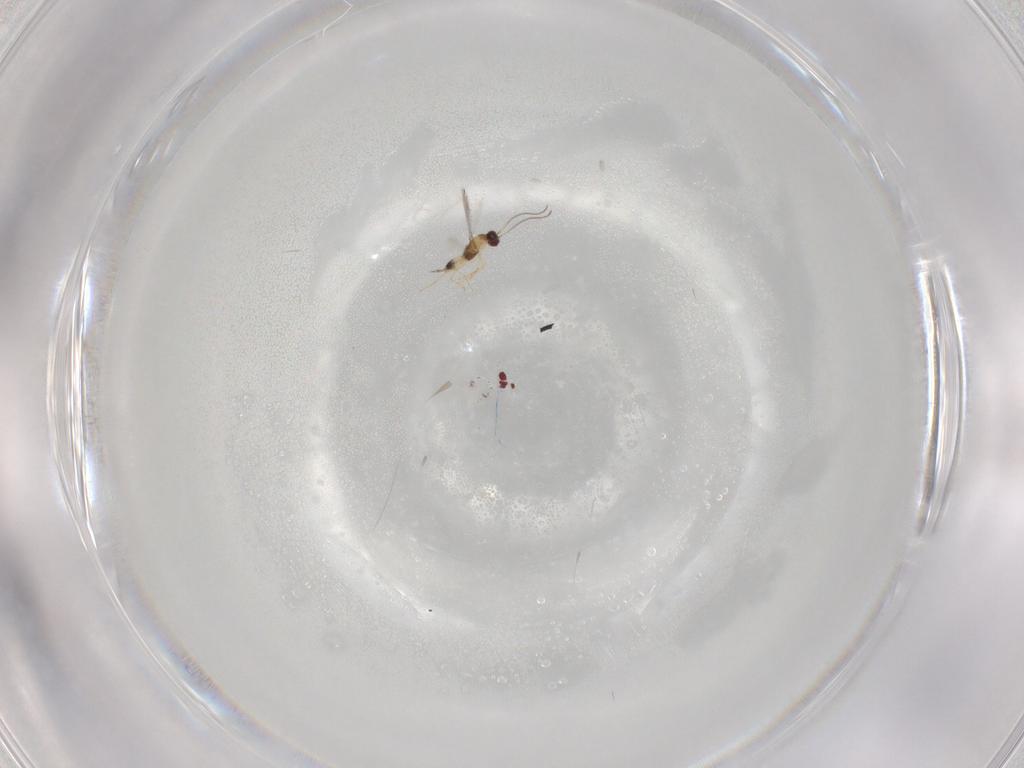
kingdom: Animalia
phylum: Arthropoda
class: Insecta
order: Hymenoptera
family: Mymaridae
